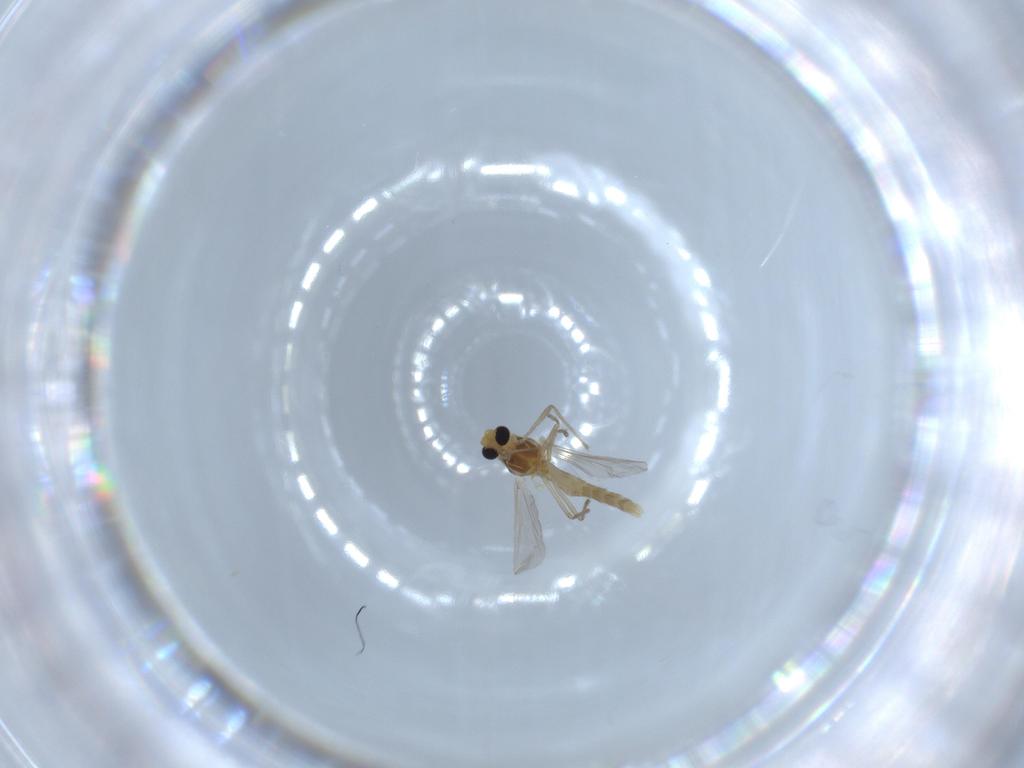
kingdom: Animalia
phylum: Arthropoda
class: Insecta
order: Diptera
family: Chironomidae
